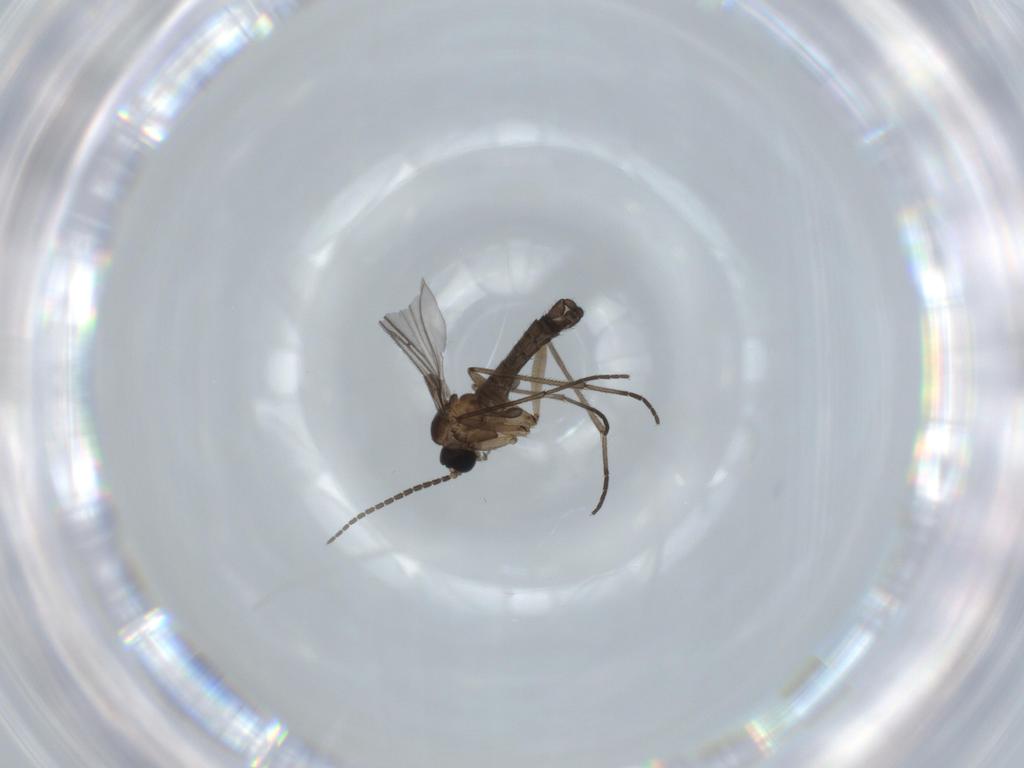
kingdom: Animalia
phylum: Arthropoda
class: Insecta
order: Diptera
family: Sciaridae
